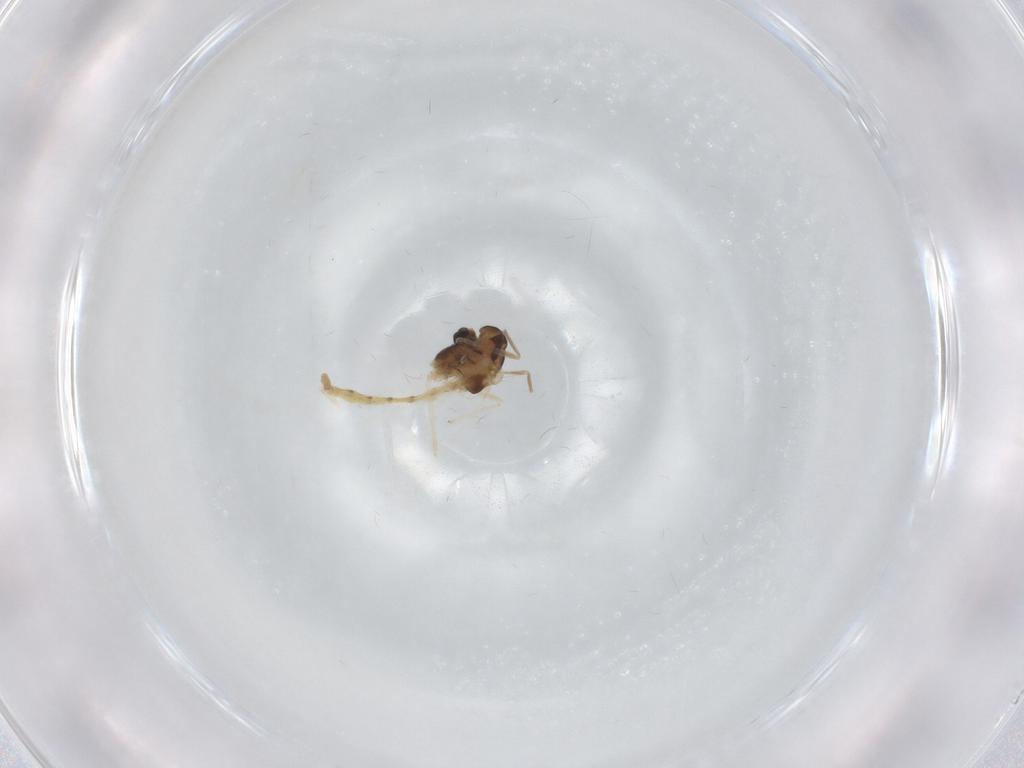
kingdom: Animalia
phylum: Arthropoda
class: Insecta
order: Diptera
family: Chironomidae
